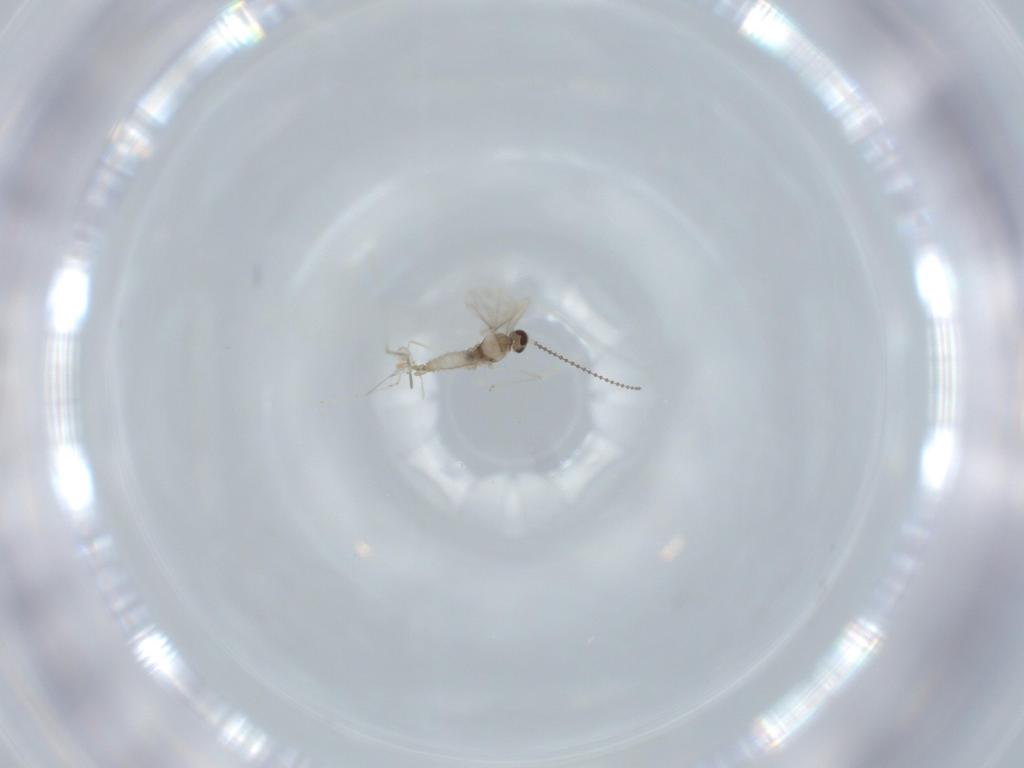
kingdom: Animalia
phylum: Arthropoda
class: Insecta
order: Diptera
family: Cecidomyiidae
